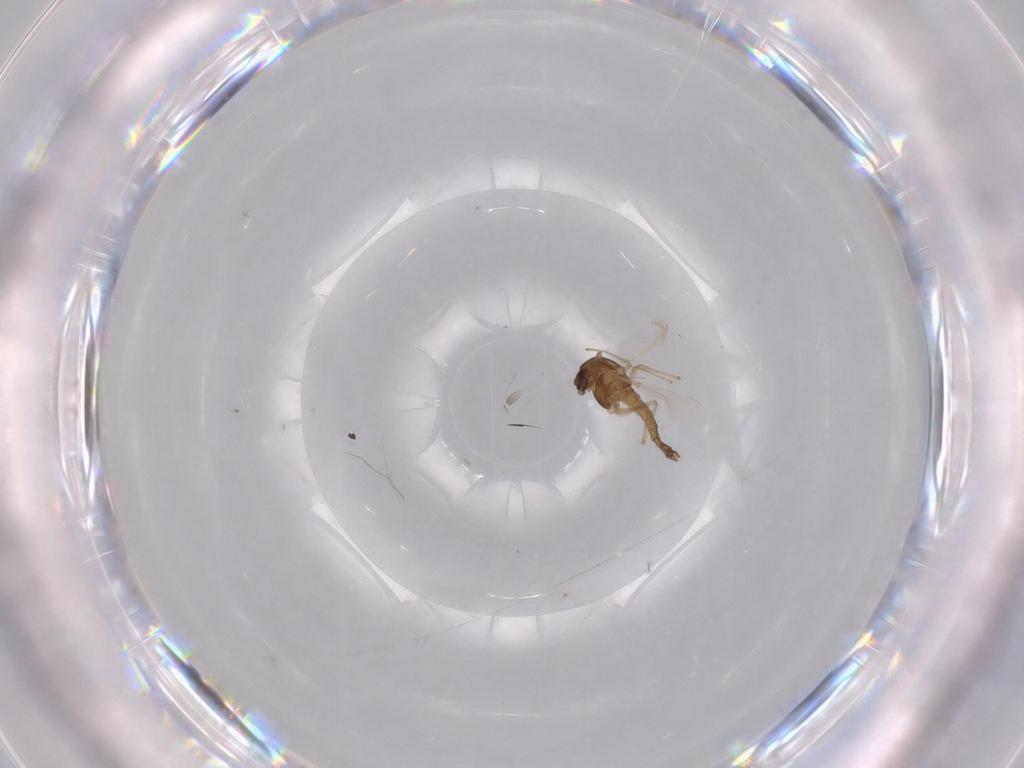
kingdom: Animalia
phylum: Arthropoda
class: Insecta
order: Diptera
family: Chironomidae
